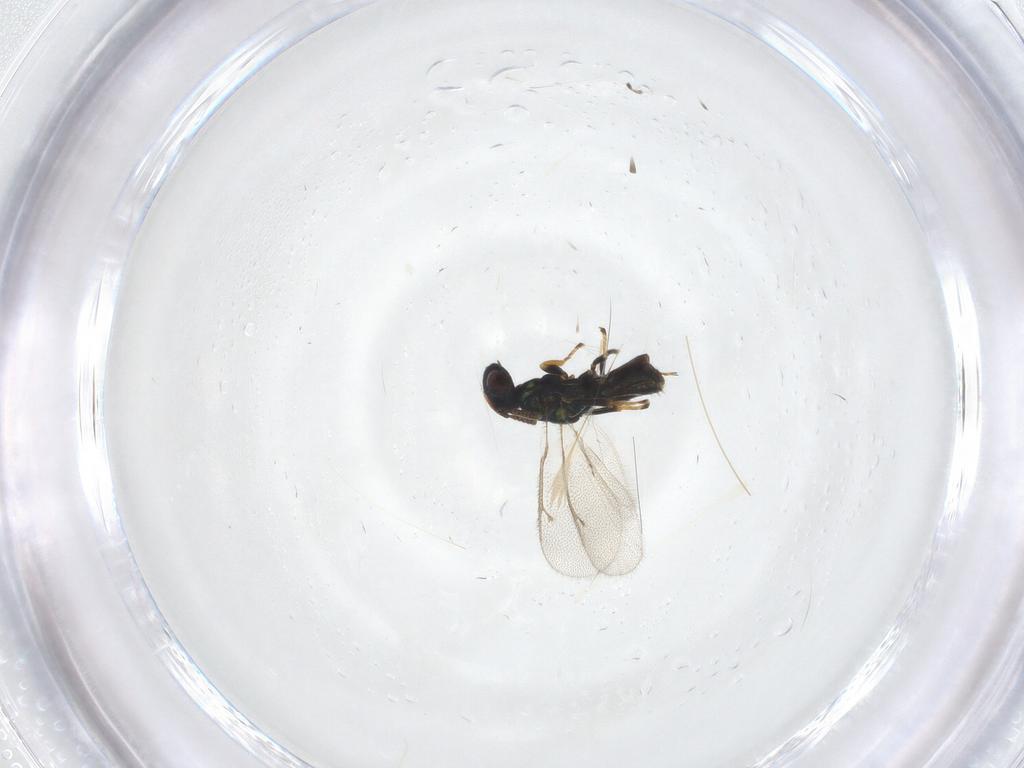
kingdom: Animalia
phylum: Arthropoda
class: Insecta
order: Hymenoptera
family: Pteromalidae
